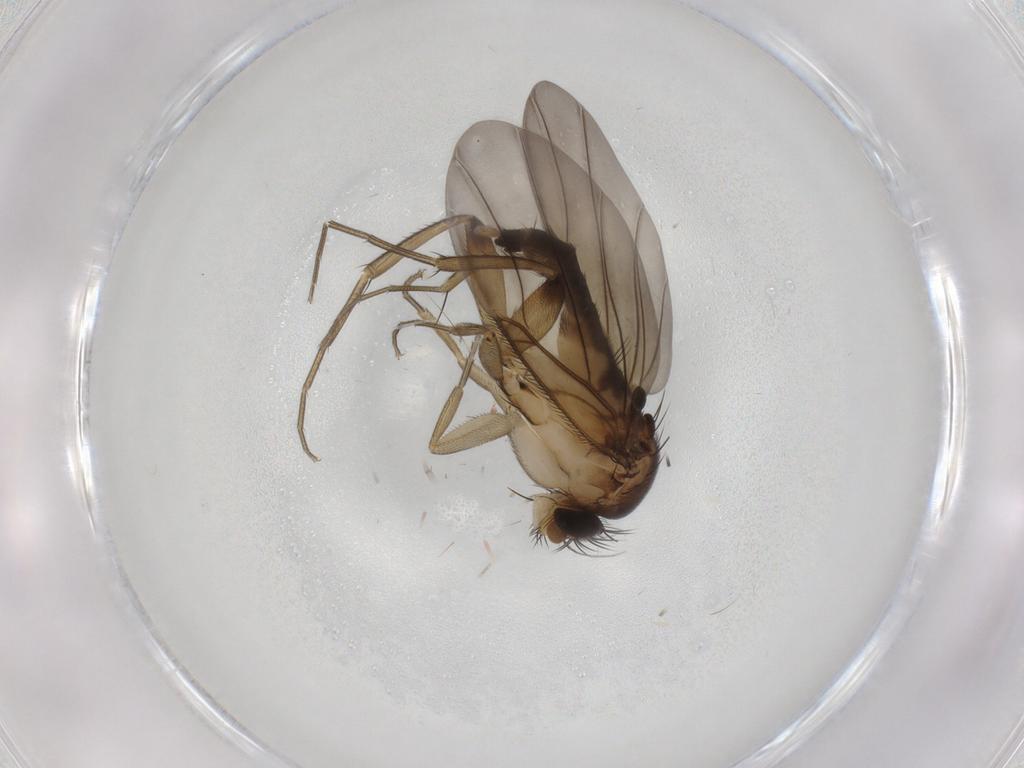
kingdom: Animalia
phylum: Arthropoda
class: Insecta
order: Diptera
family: Phoridae
